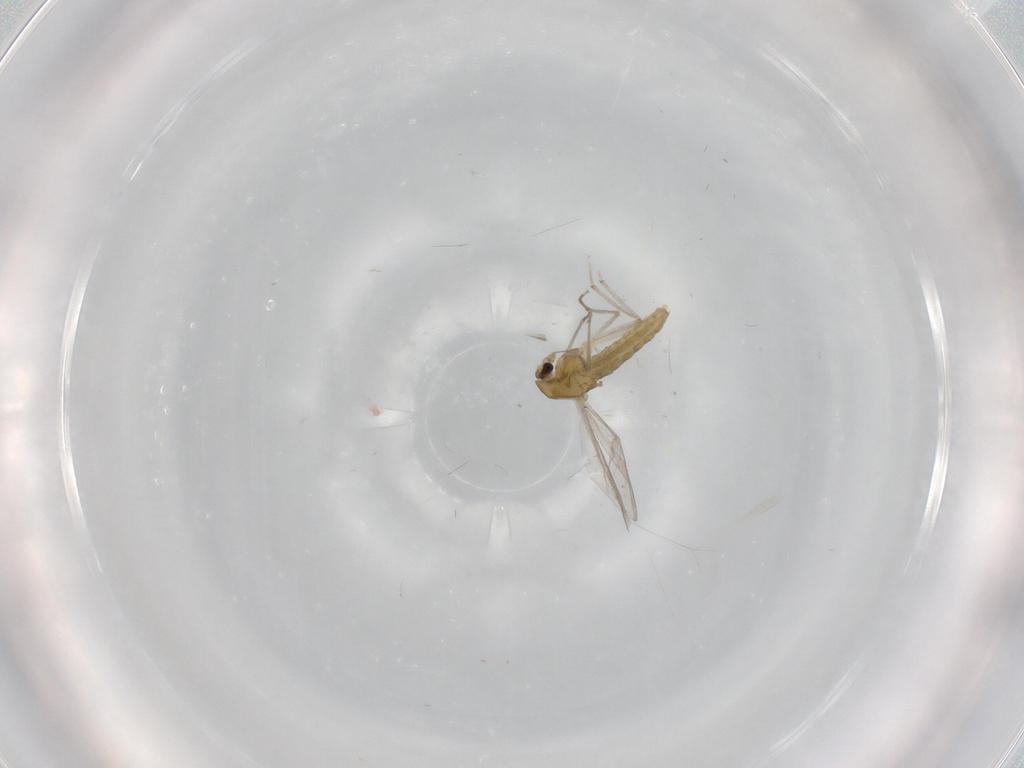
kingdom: Animalia
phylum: Arthropoda
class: Insecta
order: Diptera
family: Chironomidae
